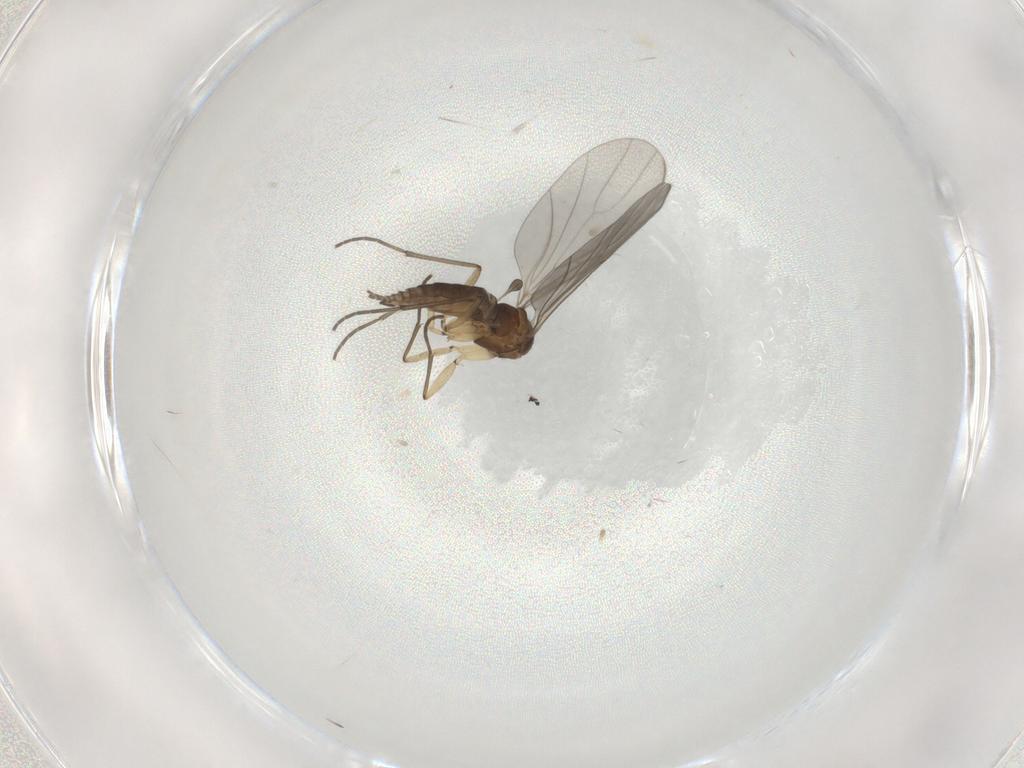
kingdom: Animalia
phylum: Arthropoda
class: Insecta
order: Diptera
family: Sciaridae
